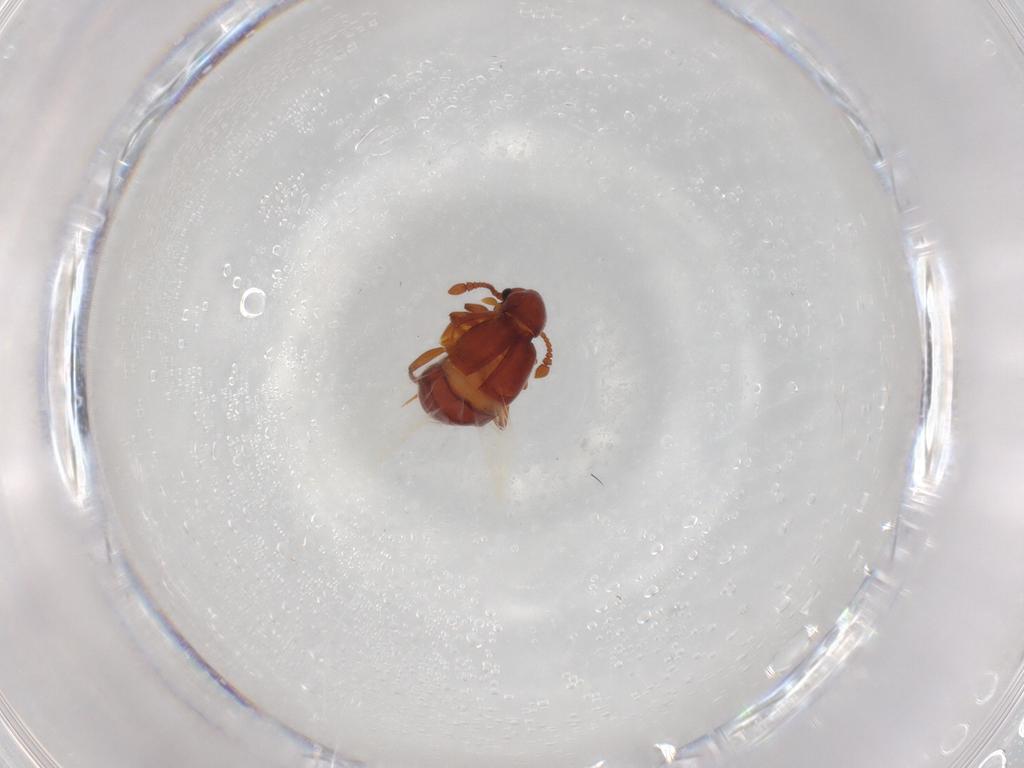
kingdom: Animalia
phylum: Arthropoda
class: Insecta
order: Coleoptera
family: Staphylinidae
